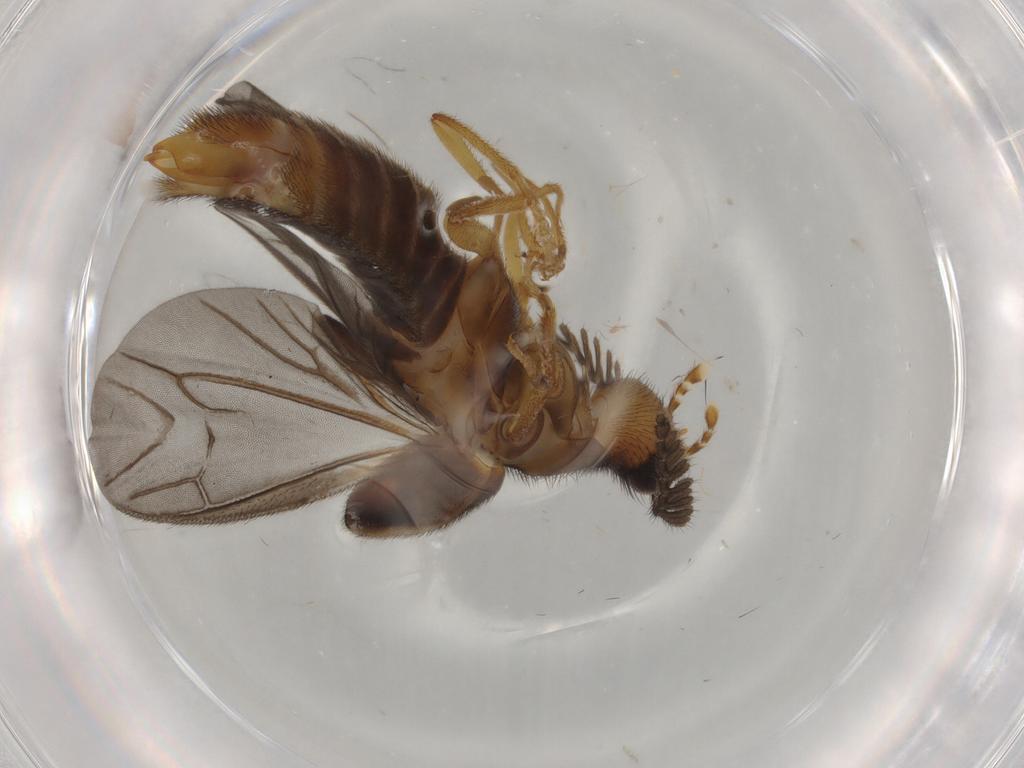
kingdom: Animalia
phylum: Arthropoda
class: Insecta
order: Coleoptera
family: Phengodidae
